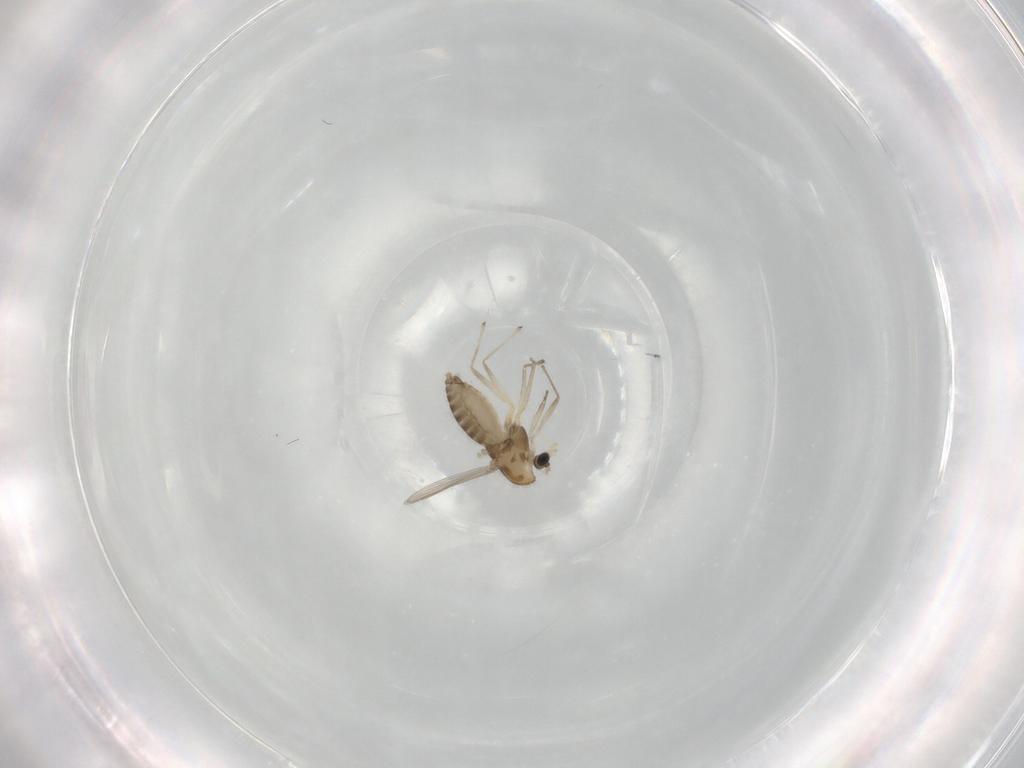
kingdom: Animalia
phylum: Arthropoda
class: Insecta
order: Diptera
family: Chironomidae
